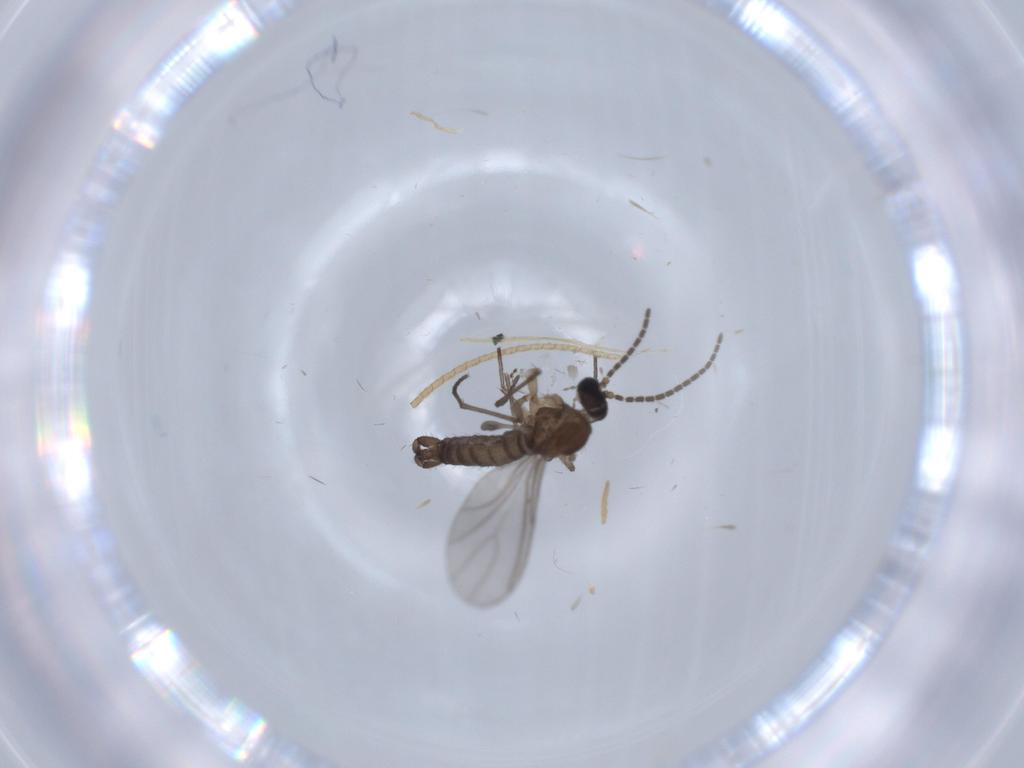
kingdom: Animalia
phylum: Arthropoda
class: Insecta
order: Diptera
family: Sciaridae
